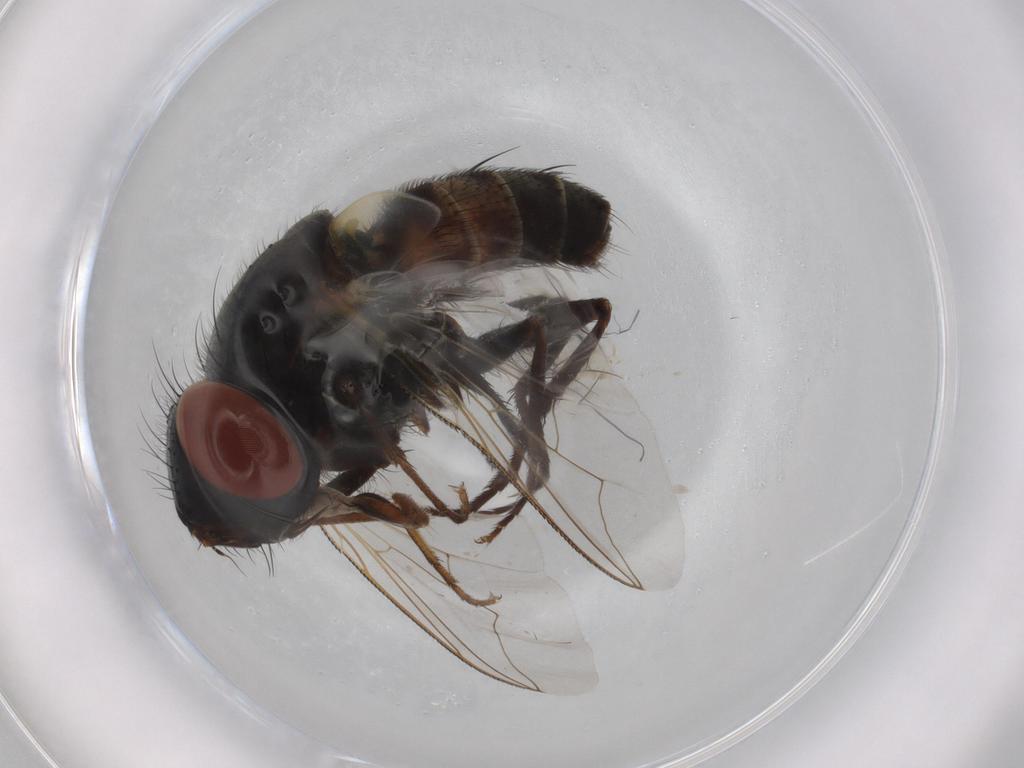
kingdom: Animalia
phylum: Arthropoda
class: Insecta
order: Diptera
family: Sarcophagidae
